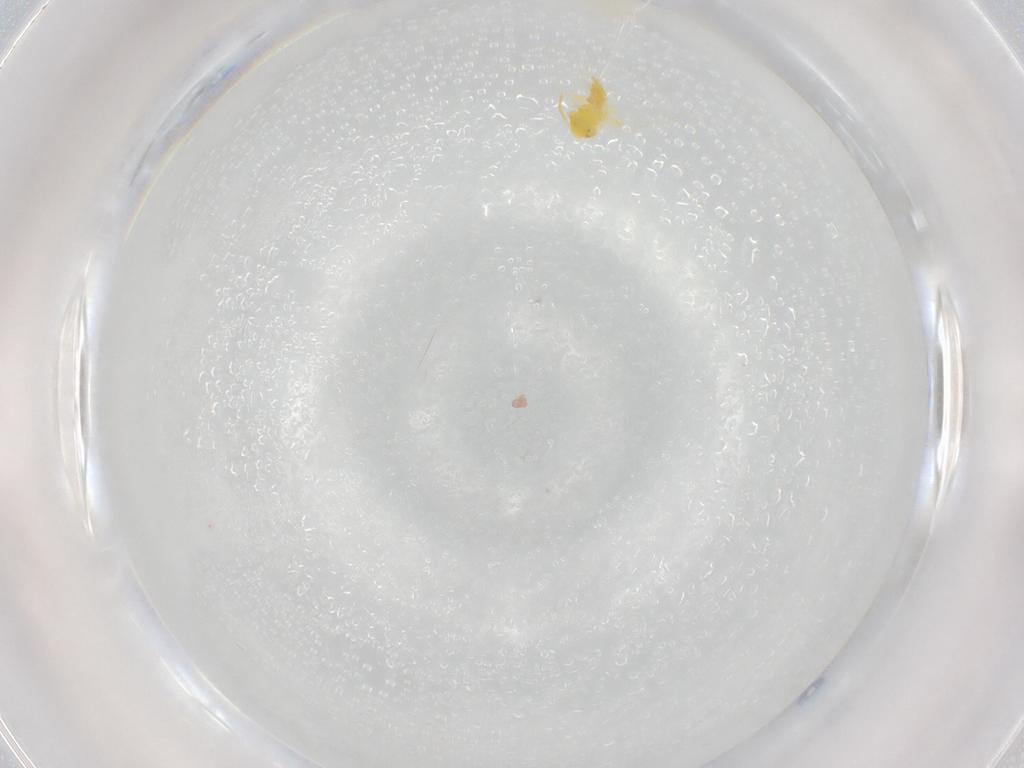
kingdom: Animalia
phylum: Arthropoda
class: Insecta
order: Hemiptera
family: Aleyrodidae
